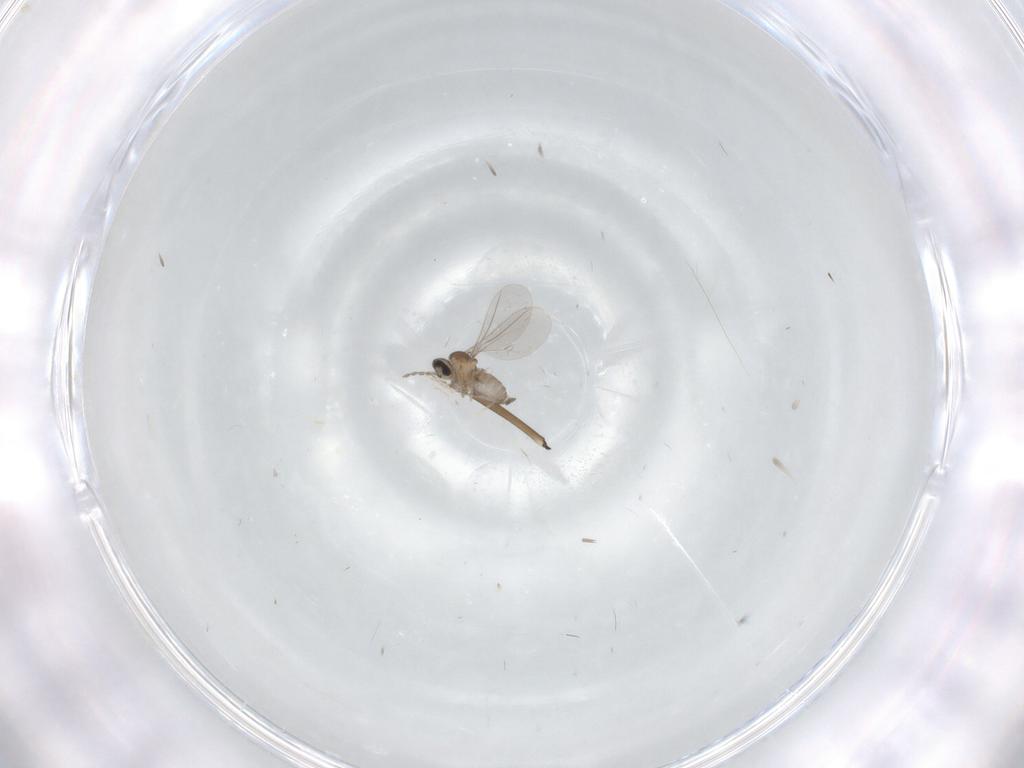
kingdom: Animalia
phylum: Arthropoda
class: Insecta
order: Diptera
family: Cecidomyiidae
